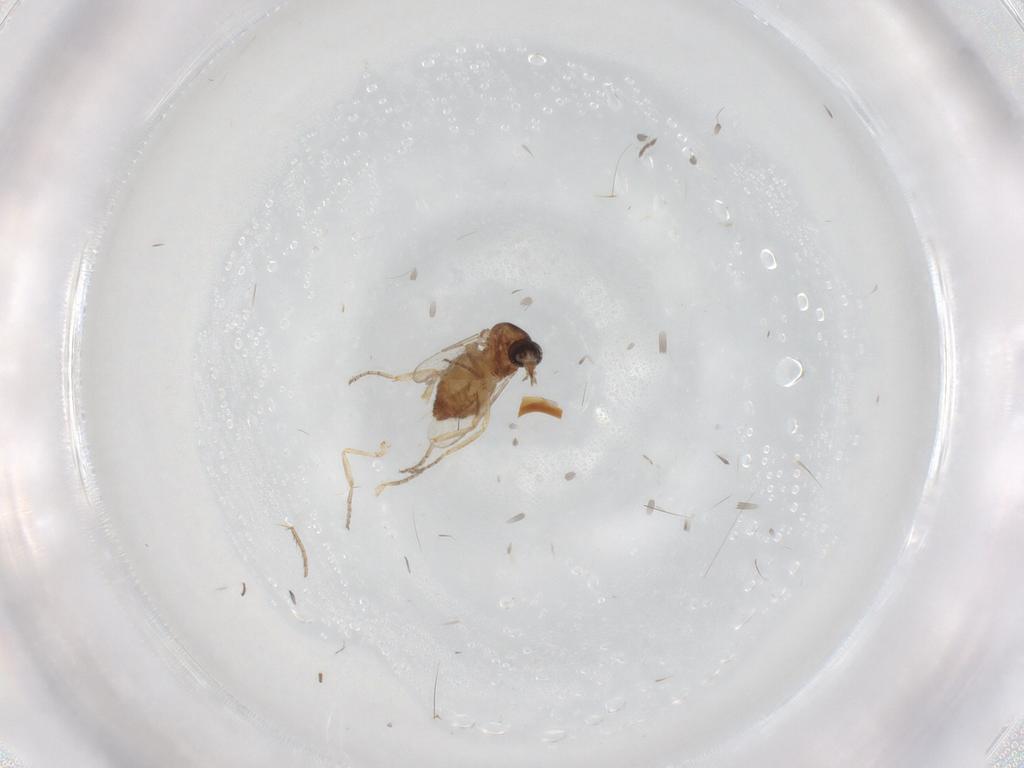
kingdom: Animalia
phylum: Arthropoda
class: Insecta
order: Diptera
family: Ceratopogonidae
